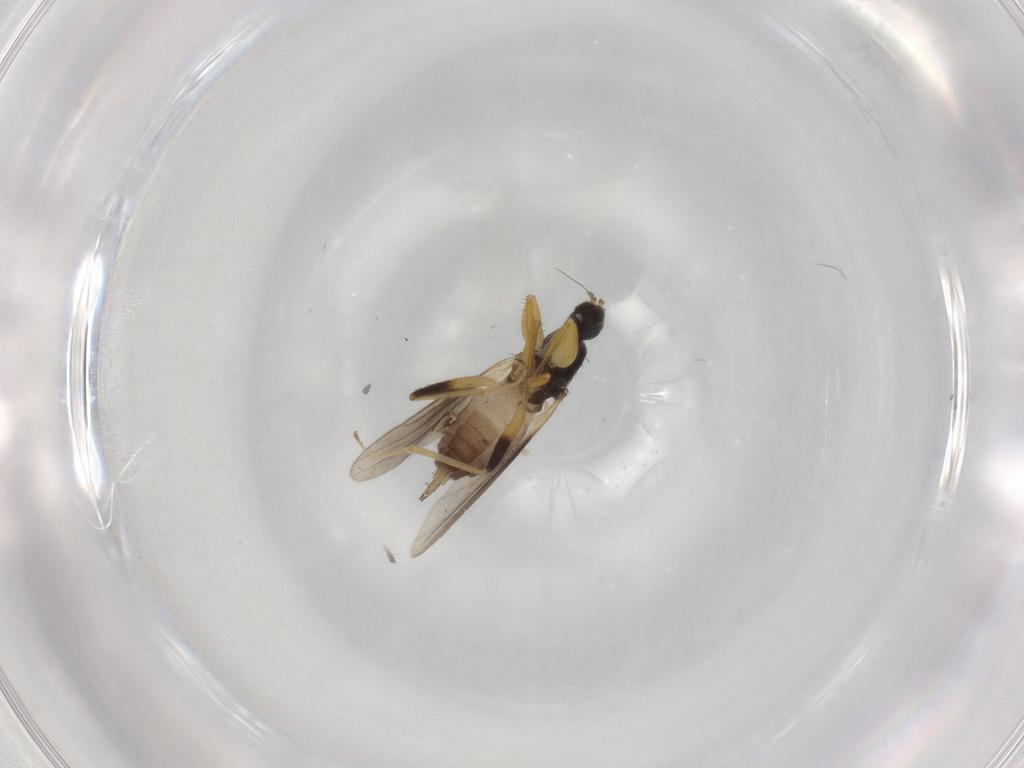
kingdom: Animalia
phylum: Arthropoda
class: Insecta
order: Diptera
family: Hybotidae
